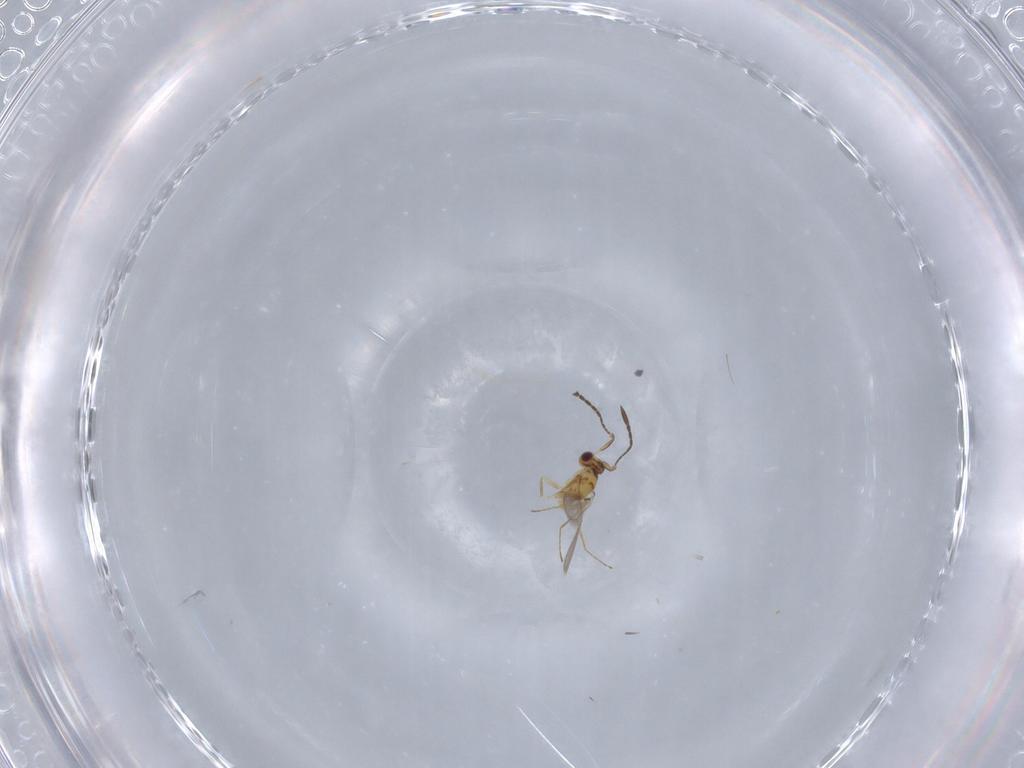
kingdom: Animalia
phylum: Arthropoda
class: Insecta
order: Hymenoptera
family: Mymaridae
